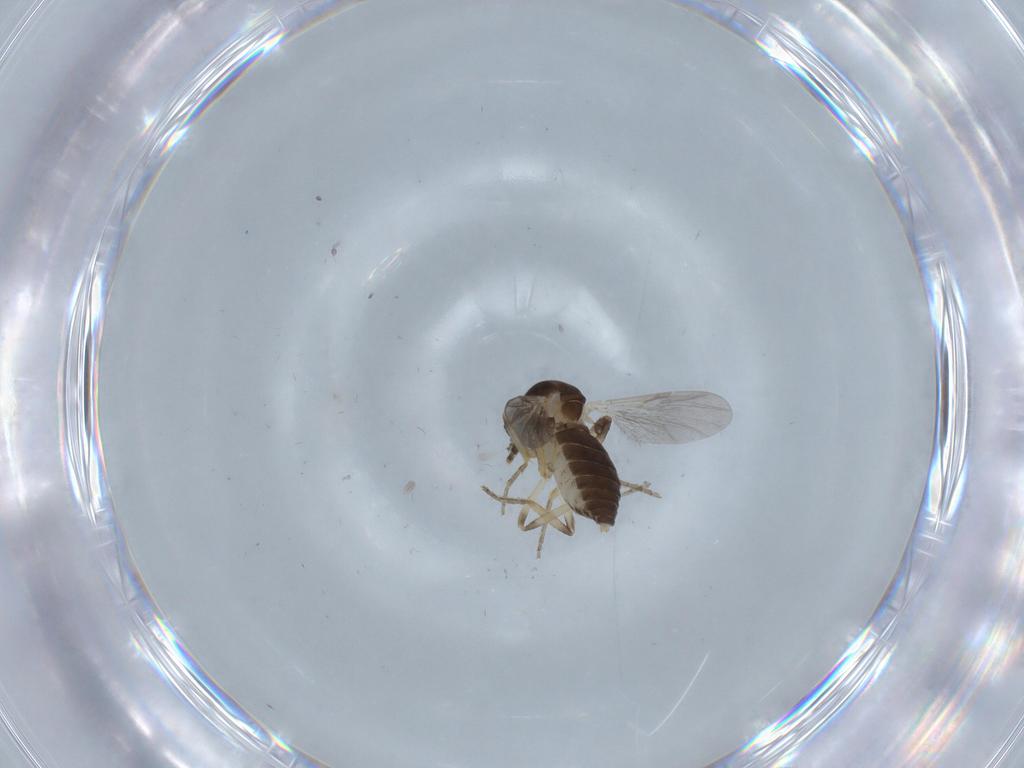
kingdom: Animalia
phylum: Arthropoda
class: Insecta
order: Diptera
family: Ceratopogonidae
